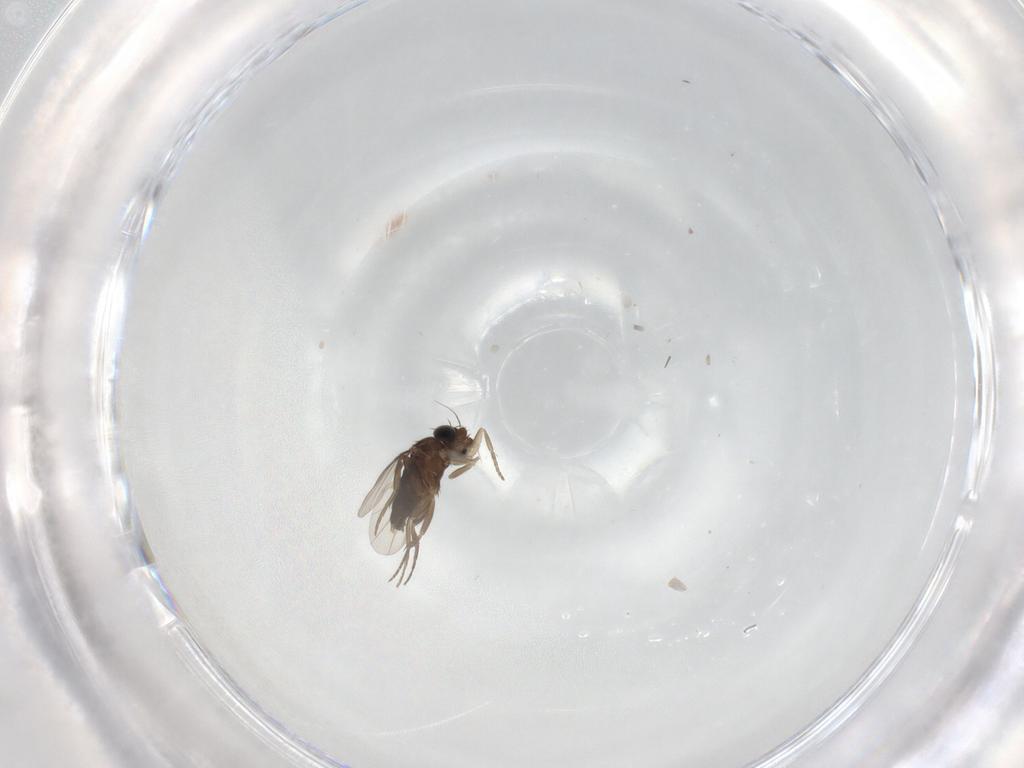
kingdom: Animalia
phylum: Arthropoda
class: Insecta
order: Diptera
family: Phoridae
